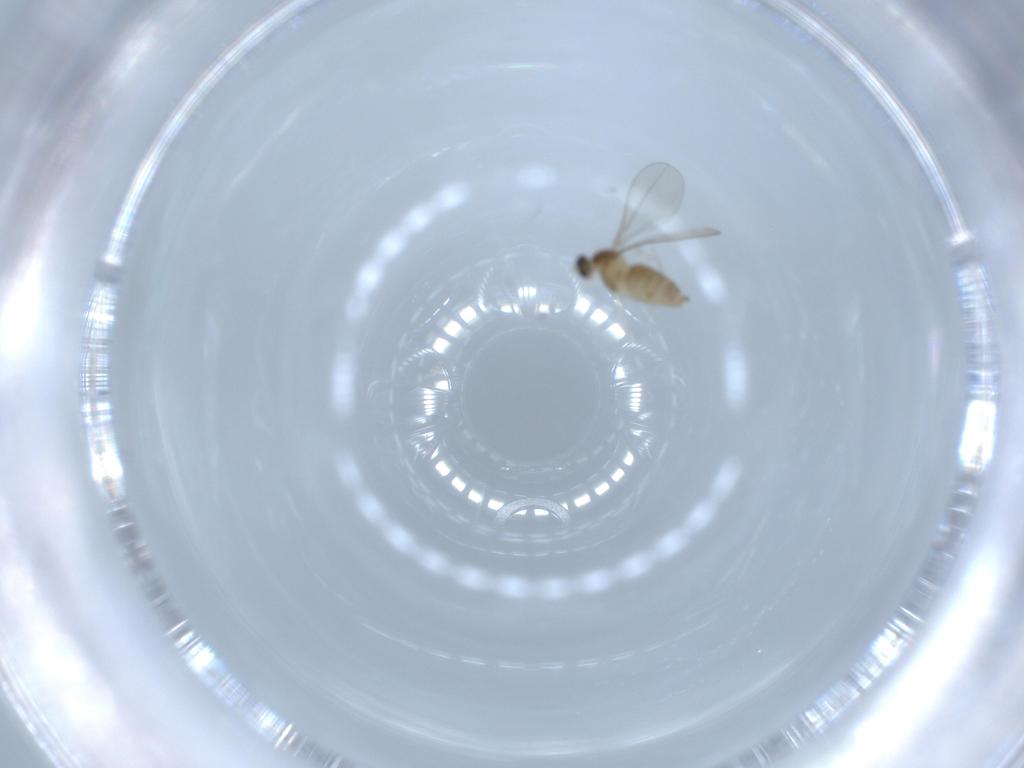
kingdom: Animalia
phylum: Arthropoda
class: Insecta
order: Diptera
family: Cecidomyiidae
